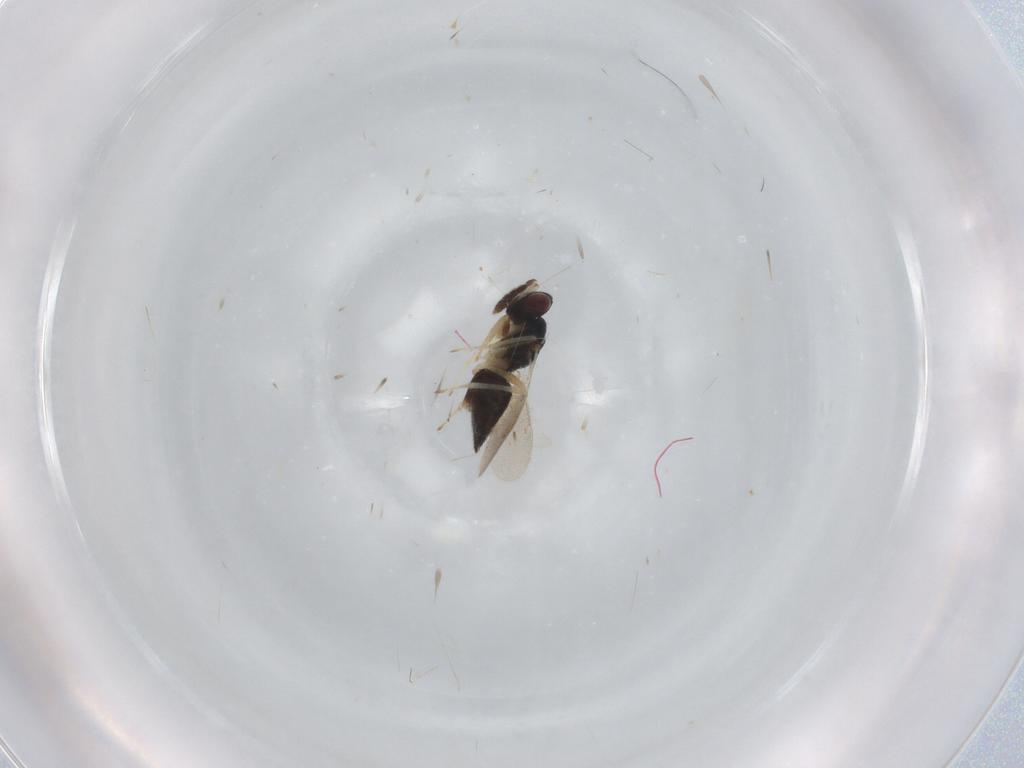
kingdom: Animalia
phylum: Arthropoda
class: Insecta
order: Hymenoptera
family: Eulophidae
